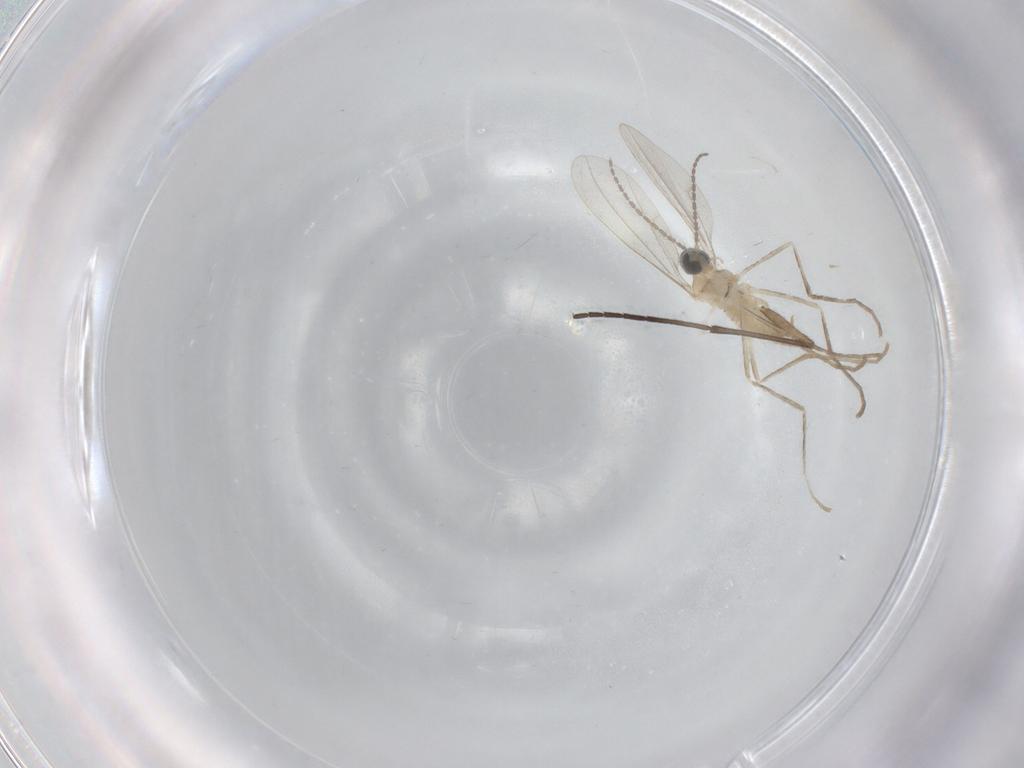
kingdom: Animalia
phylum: Arthropoda
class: Insecta
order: Diptera
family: Cecidomyiidae
